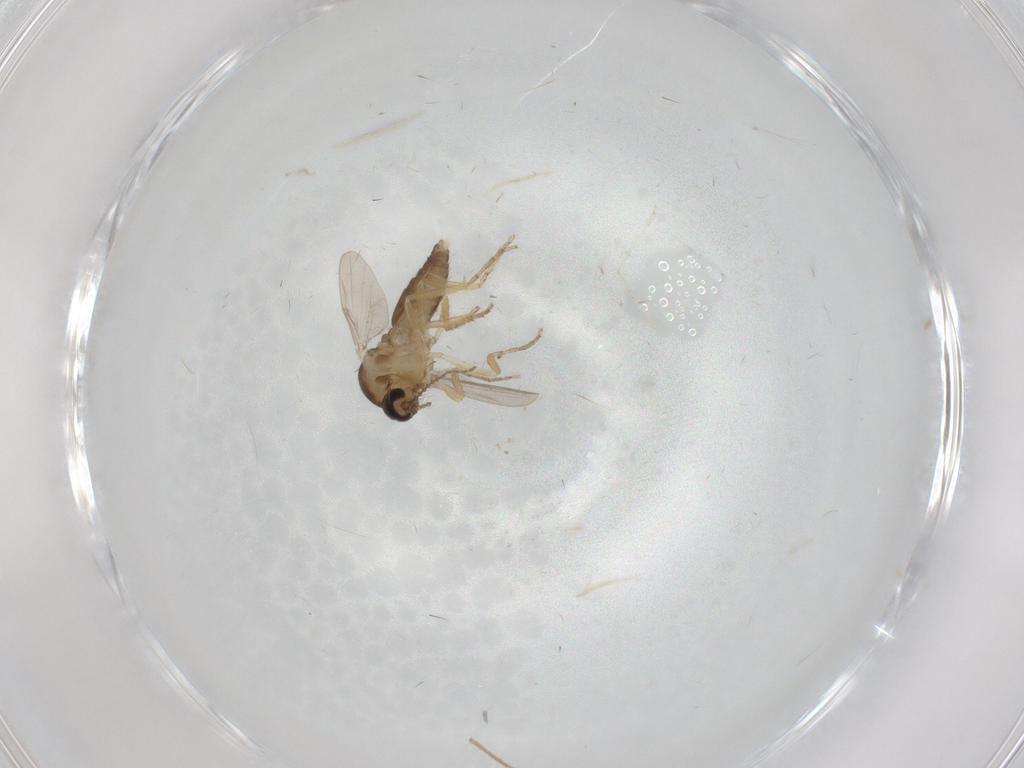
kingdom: Animalia
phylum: Arthropoda
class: Insecta
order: Diptera
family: Ceratopogonidae
